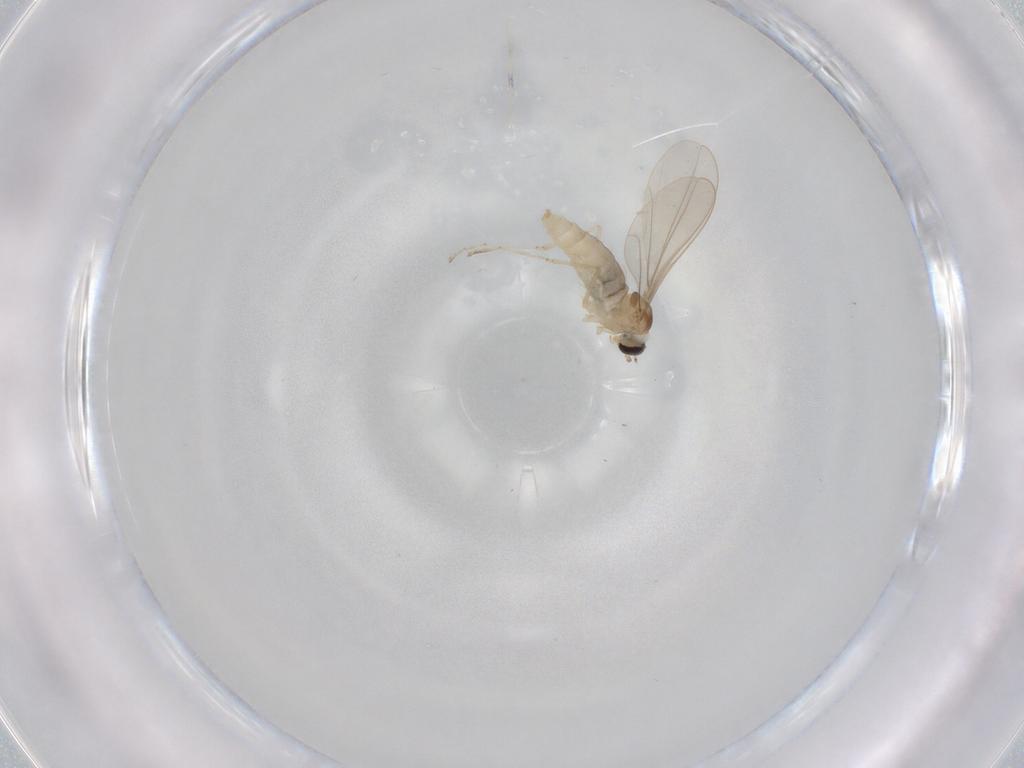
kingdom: Animalia
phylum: Arthropoda
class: Insecta
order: Diptera
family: Cecidomyiidae
